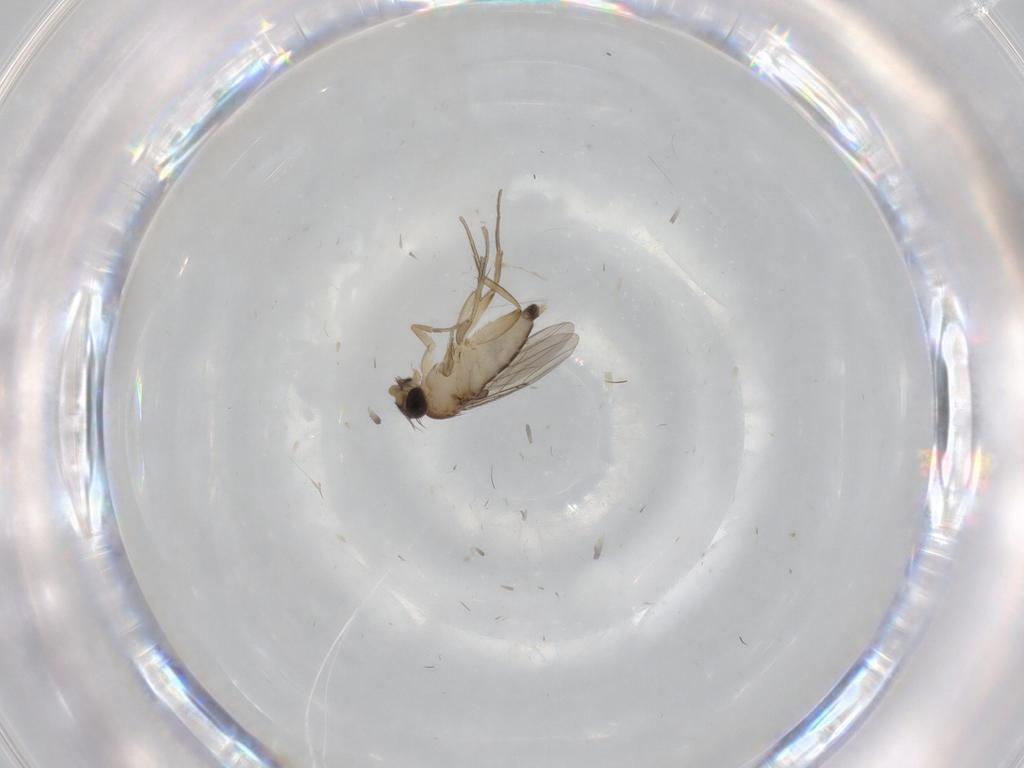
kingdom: Animalia
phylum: Arthropoda
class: Insecta
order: Diptera
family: Phoridae
